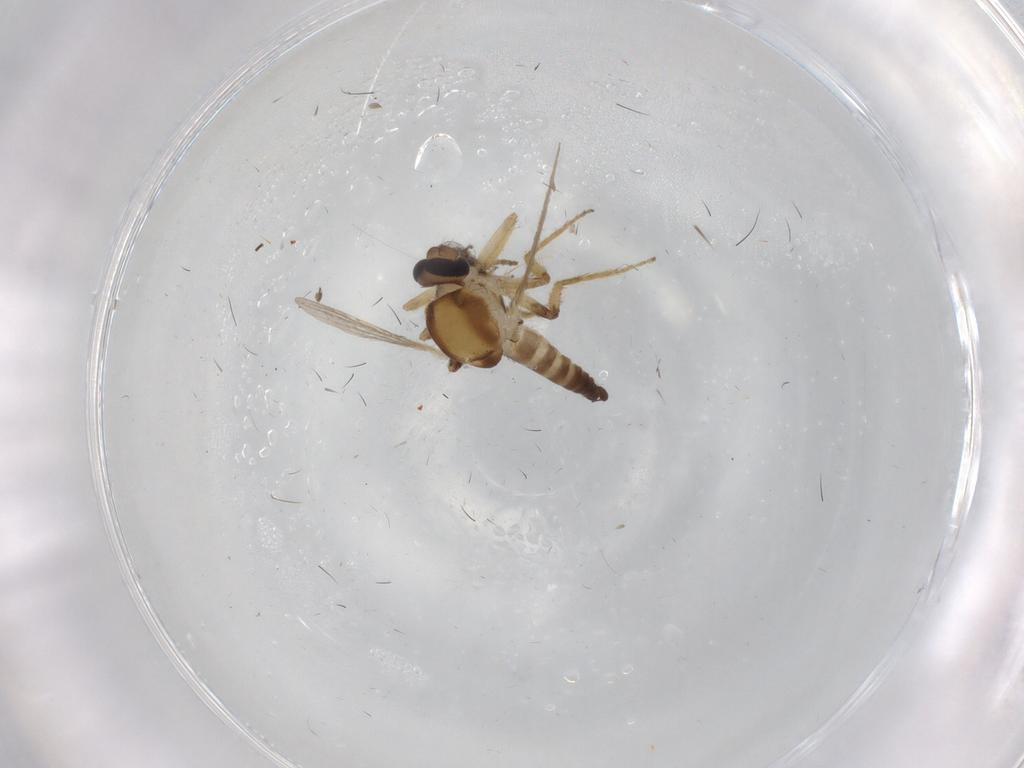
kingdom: Animalia
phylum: Arthropoda
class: Insecta
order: Diptera
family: Ceratopogonidae
